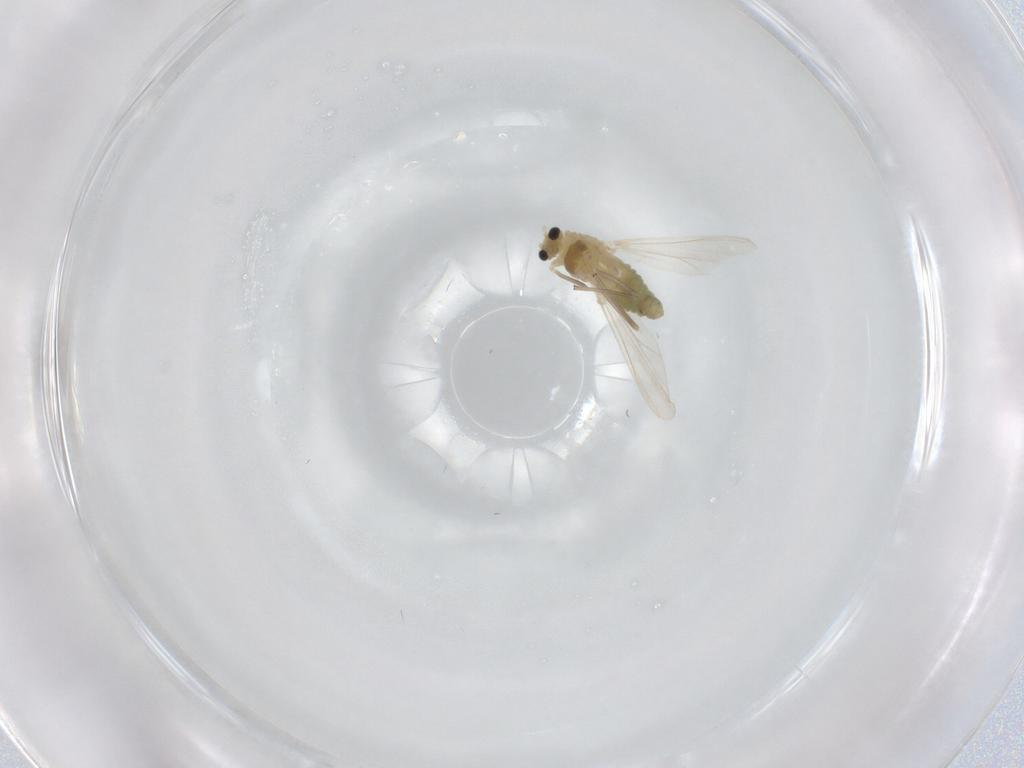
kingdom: Animalia
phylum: Arthropoda
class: Insecta
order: Diptera
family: Chironomidae
